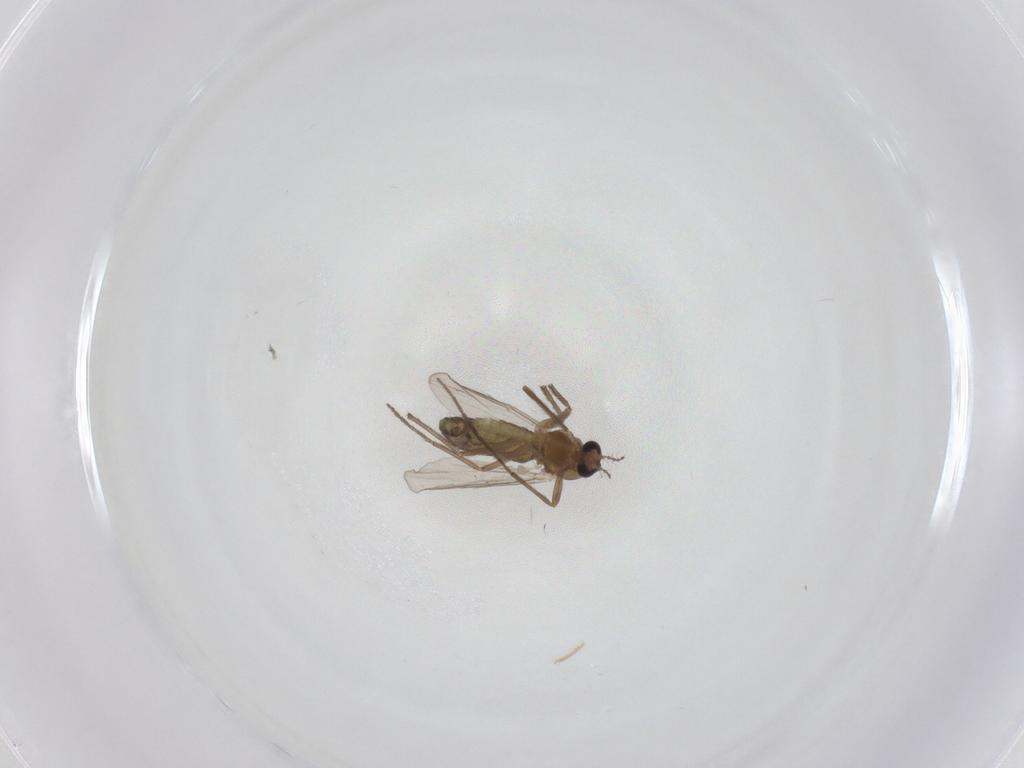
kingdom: Animalia
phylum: Arthropoda
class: Insecta
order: Diptera
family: Chironomidae
